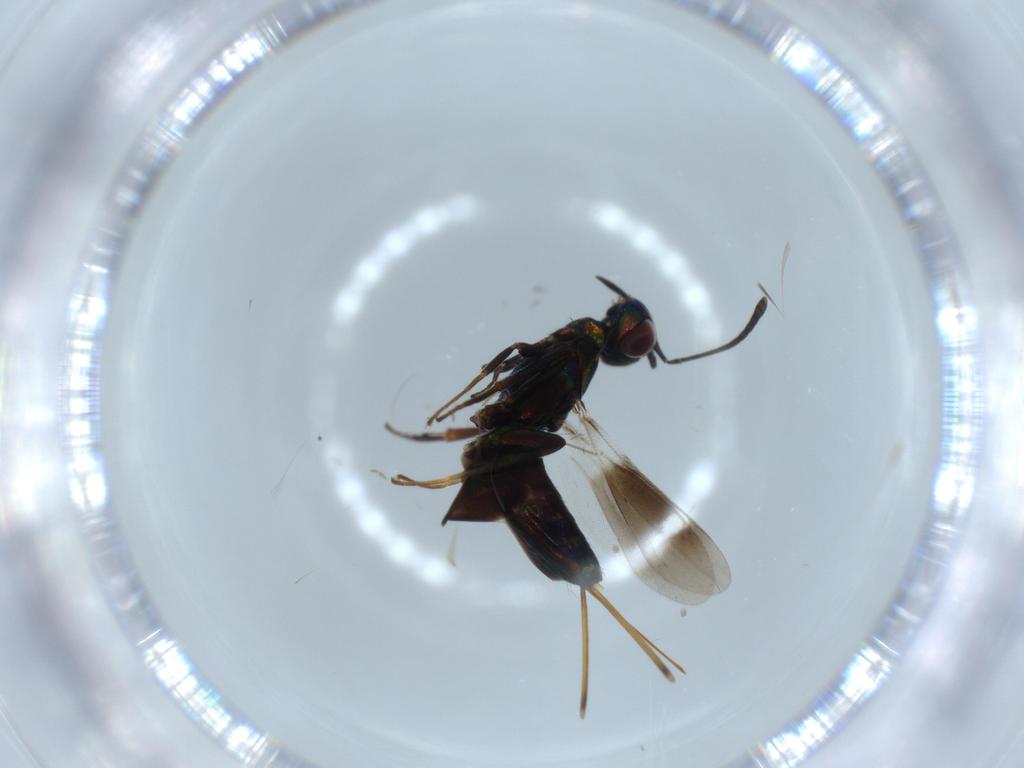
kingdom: Animalia
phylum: Arthropoda
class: Insecta
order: Hymenoptera
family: Eupelmidae
